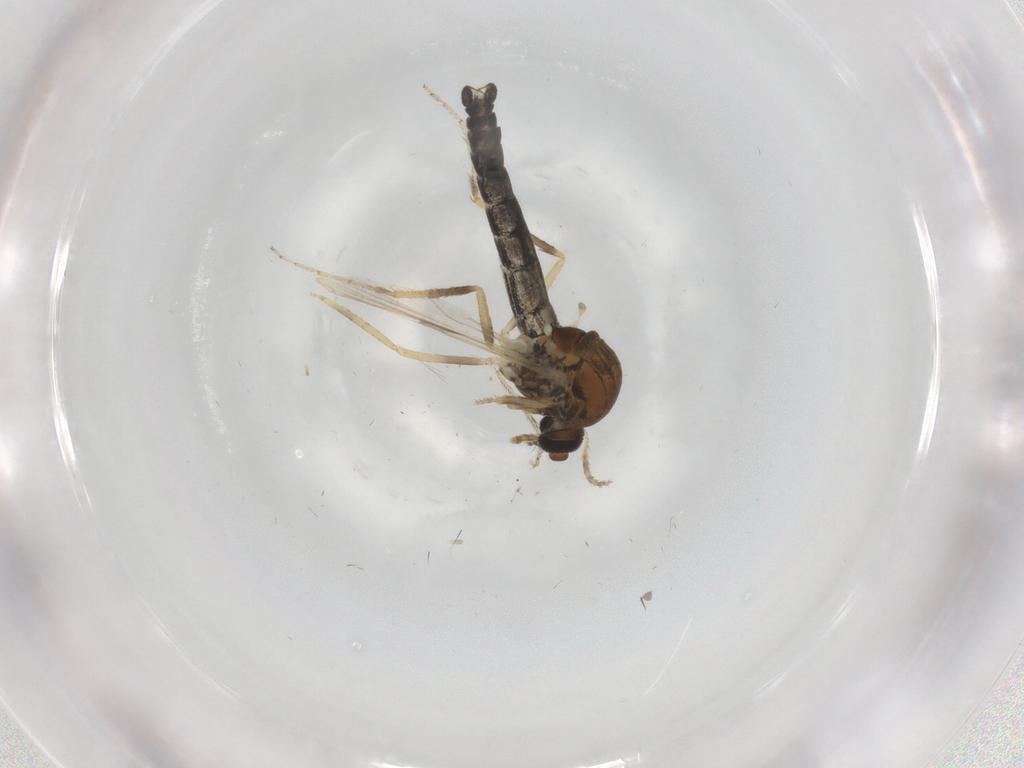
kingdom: Animalia
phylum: Arthropoda
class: Insecta
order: Diptera
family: Ceratopogonidae
